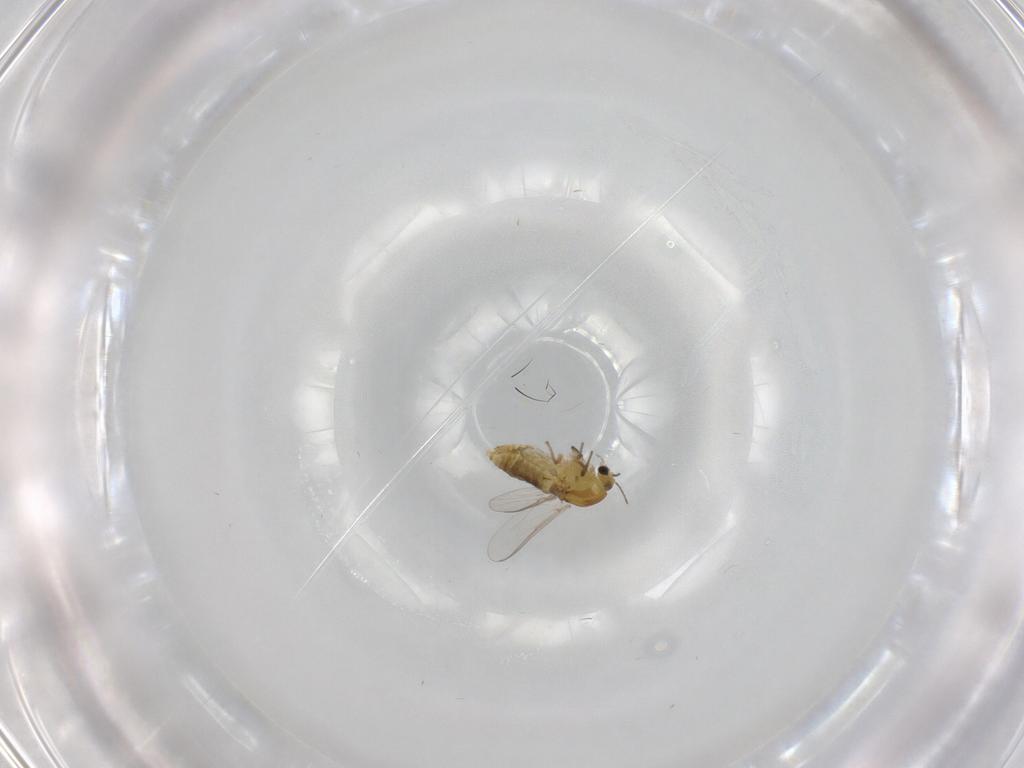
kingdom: Animalia
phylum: Arthropoda
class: Insecta
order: Diptera
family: Chironomidae
